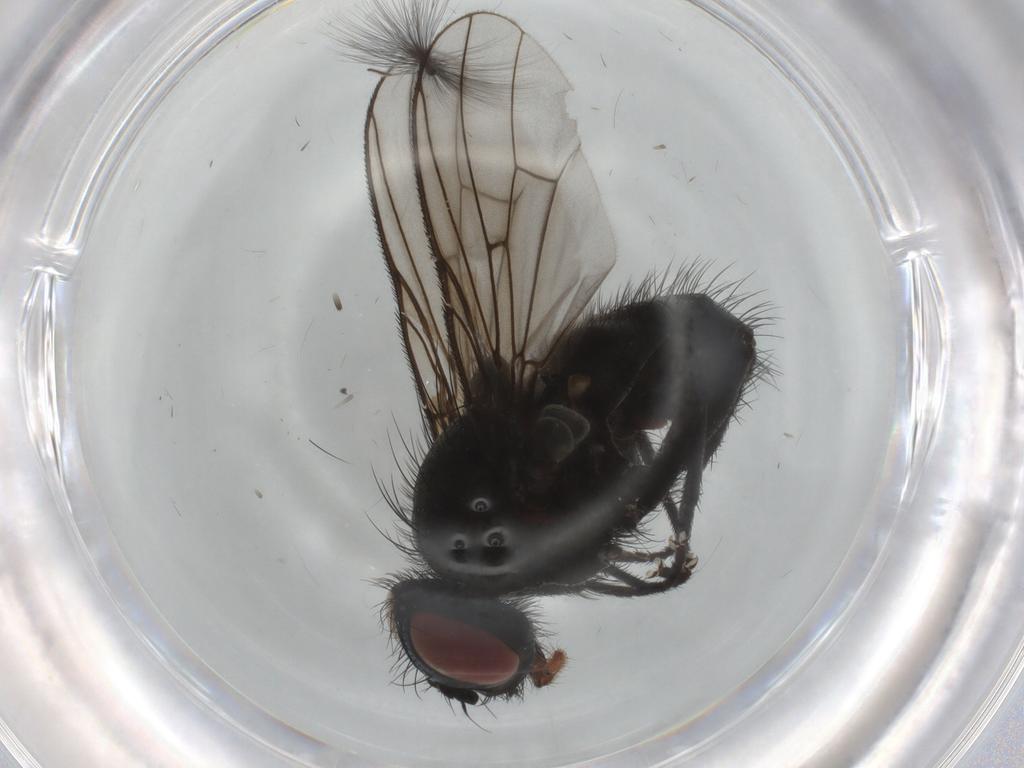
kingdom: Animalia
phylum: Arthropoda
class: Insecta
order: Diptera
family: Muscidae
